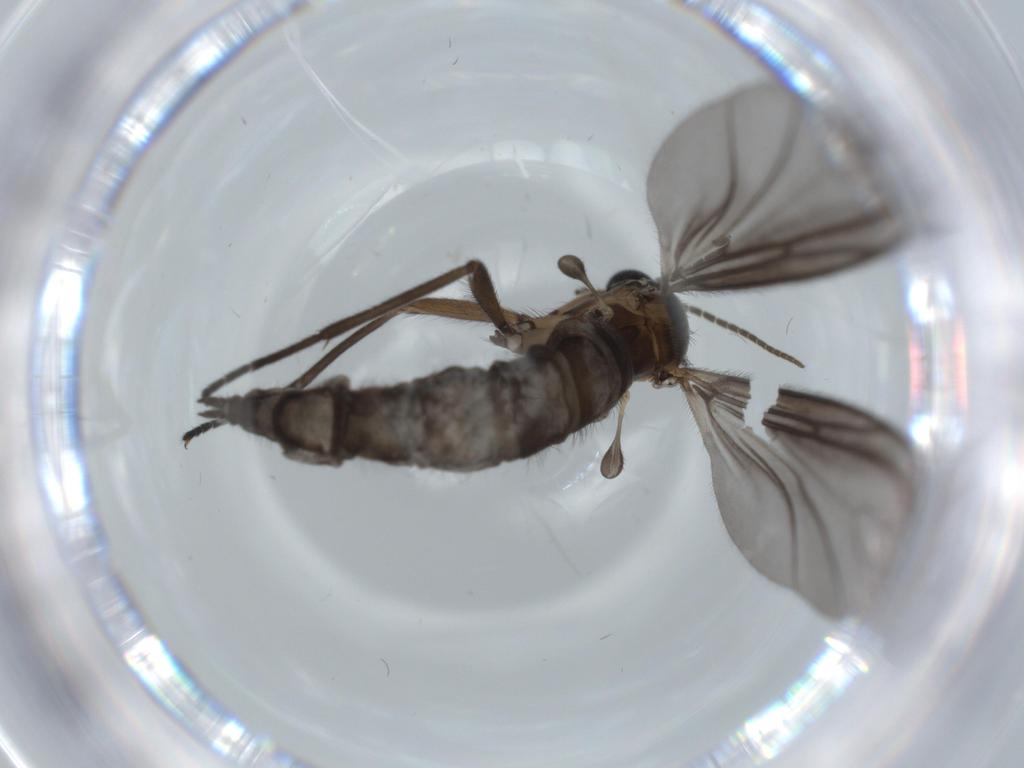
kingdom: Animalia
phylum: Arthropoda
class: Insecta
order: Diptera
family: Sciaridae
